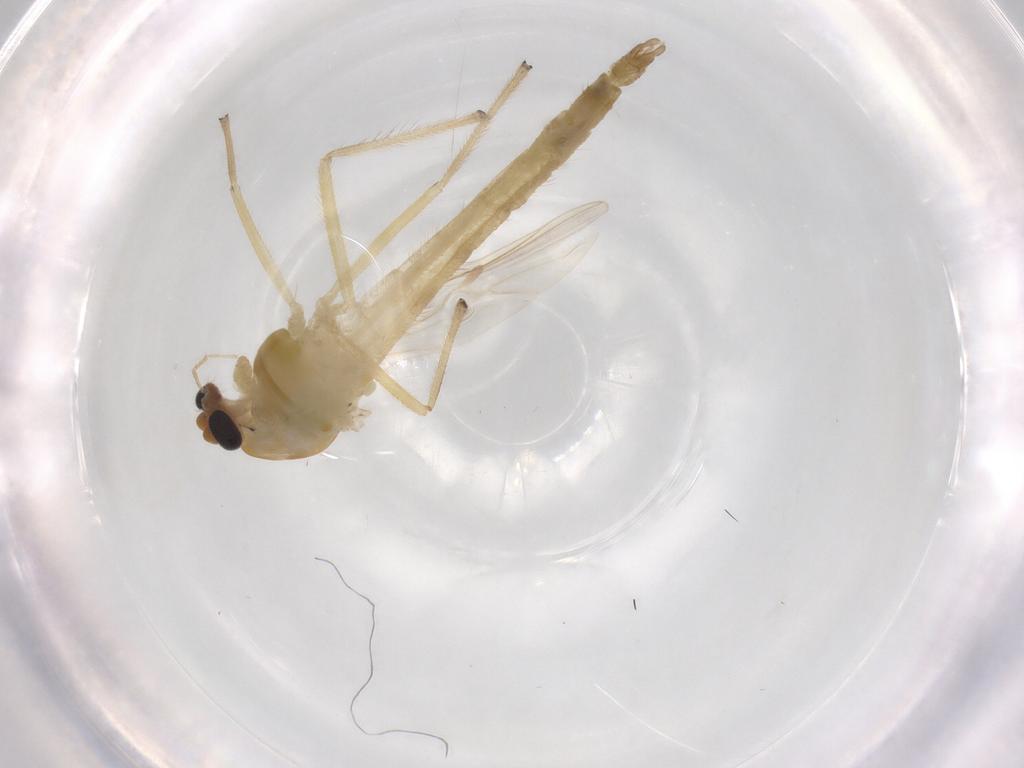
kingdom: Animalia
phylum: Arthropoda
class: Insecta
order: Diptera
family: Chironomidae
